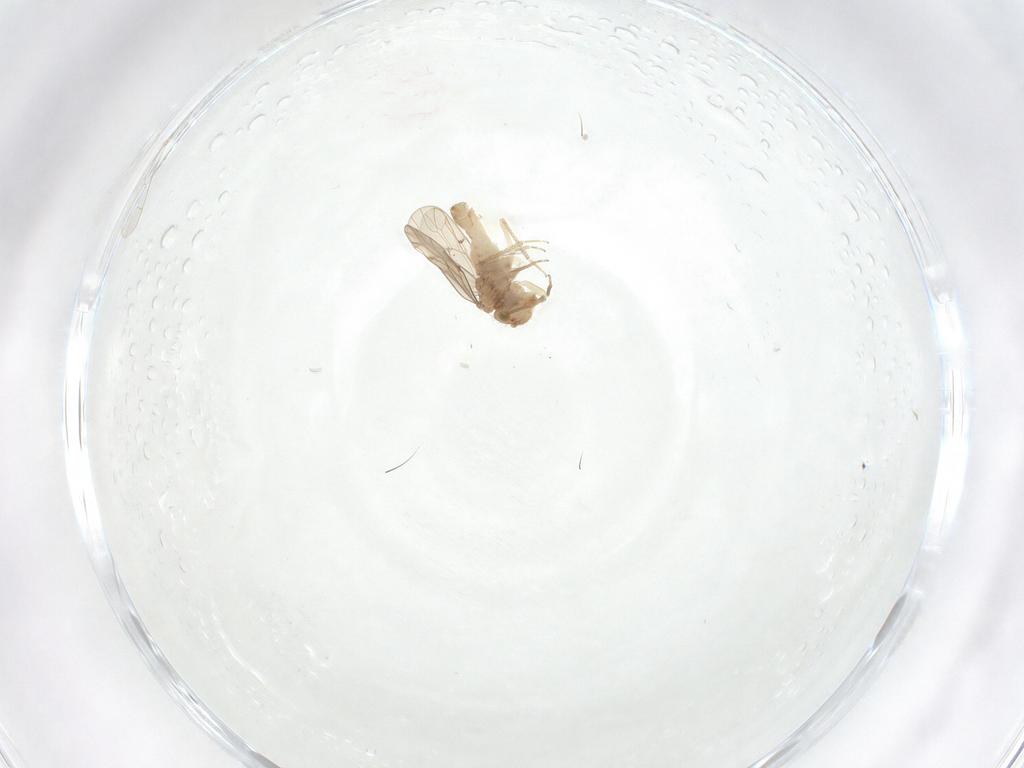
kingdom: Animalia
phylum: Arthropoda
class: Insecta
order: Psocodea
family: Ectopsocidae
